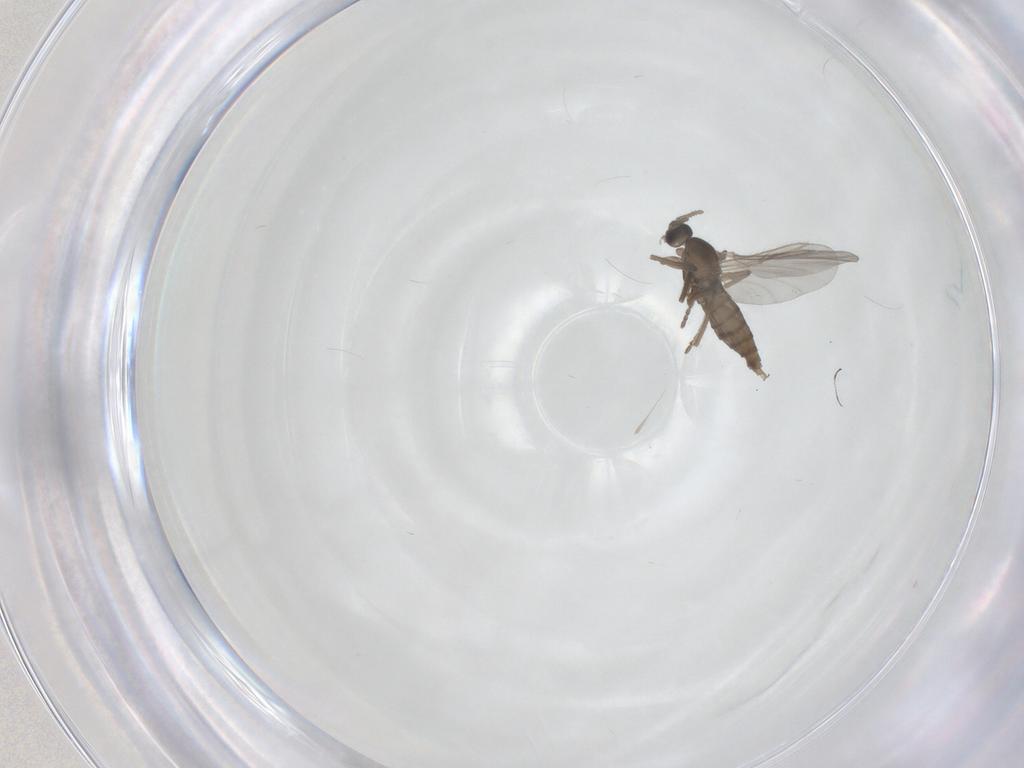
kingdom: Animalia
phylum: Arthropoda
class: Insecta
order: Diptera
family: Cecidomyiidae
